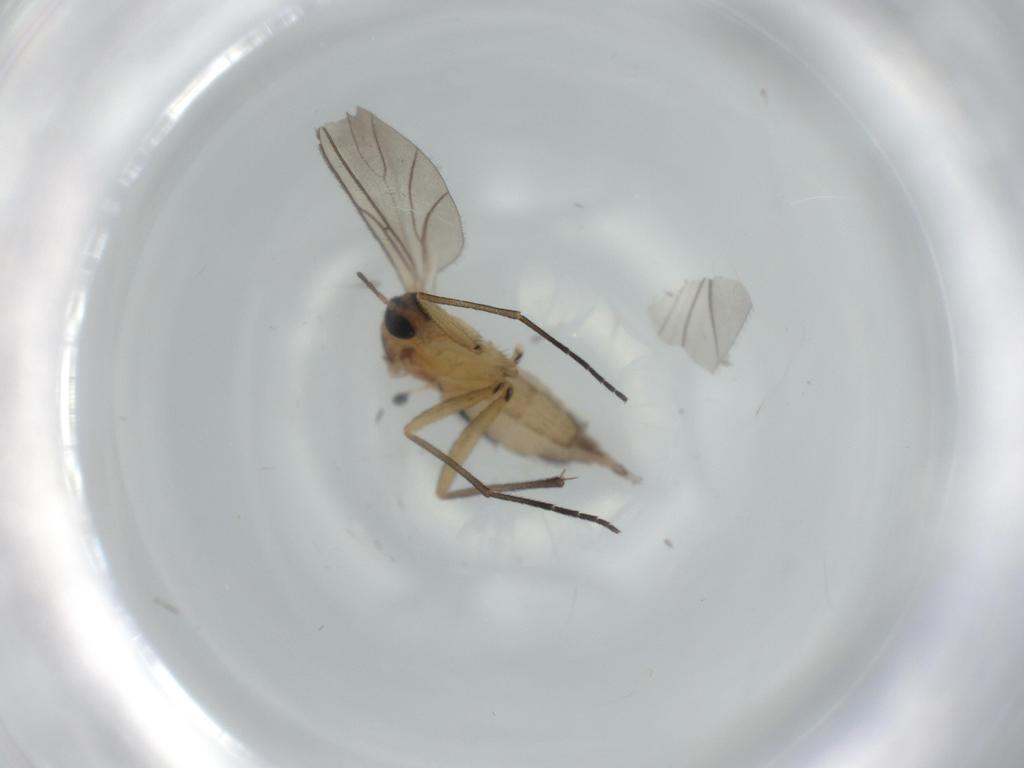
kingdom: Animalia
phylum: Arthropoda
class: Insecta
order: Diptera
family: Sciaridae
